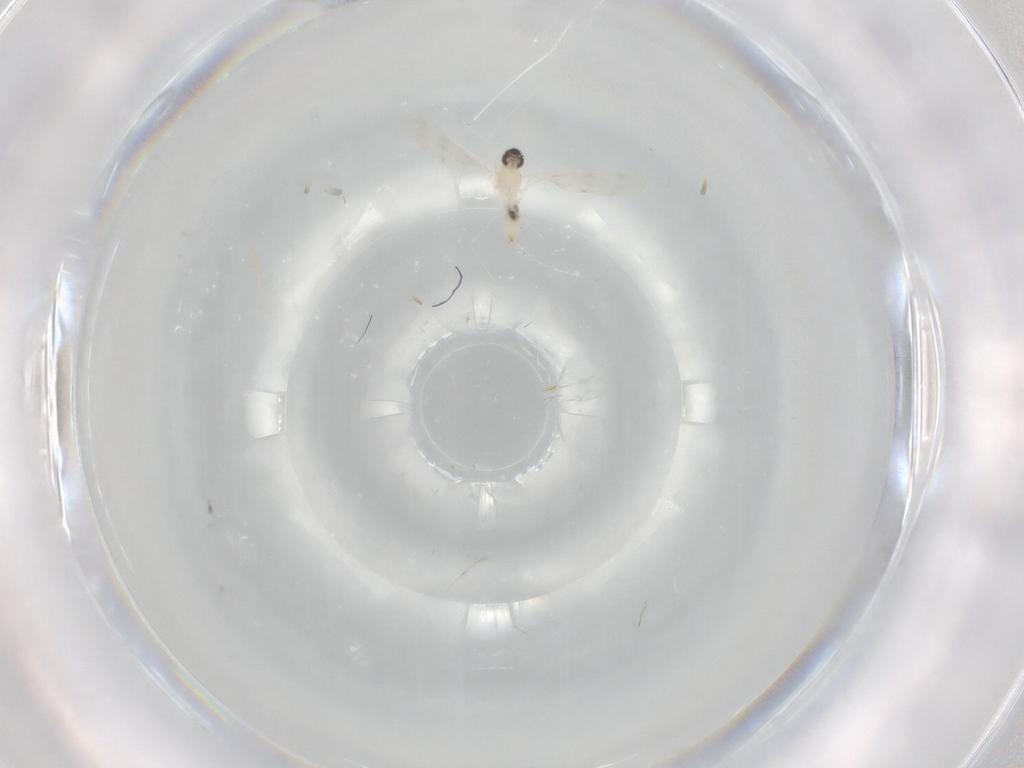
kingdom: Animalia
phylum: Arthropoda
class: Insecta
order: Diptera
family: Cecidomyiidae
